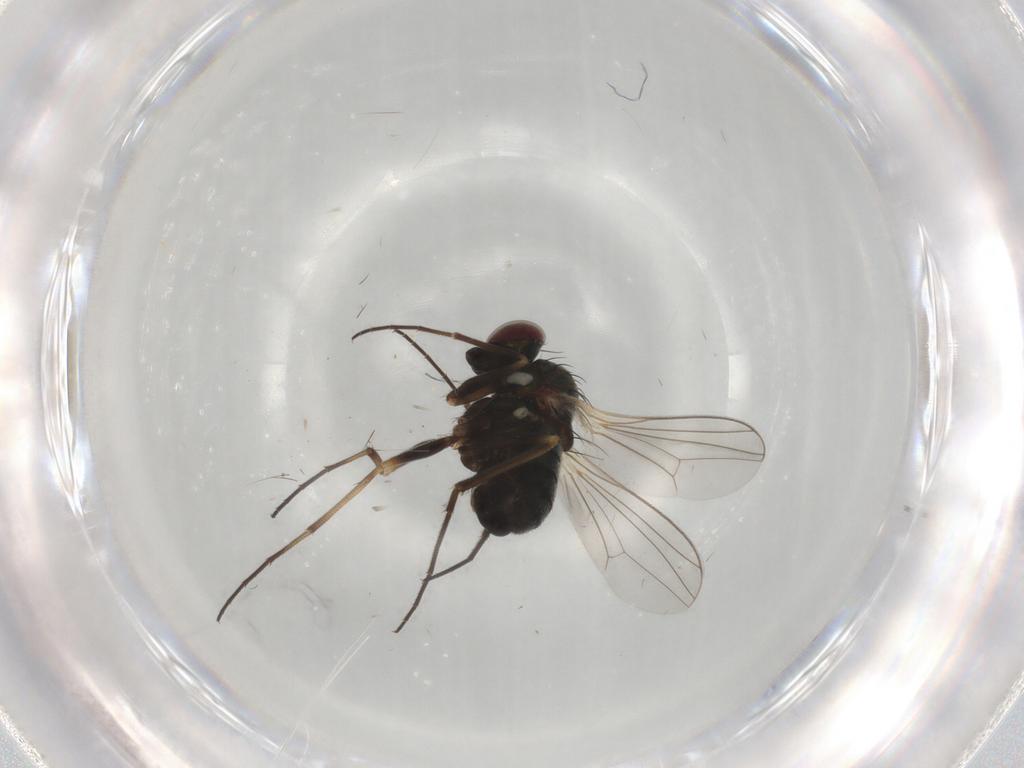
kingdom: Animalia
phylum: Arthropoda
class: Insecta
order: Diptera
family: Dolichopodidae
